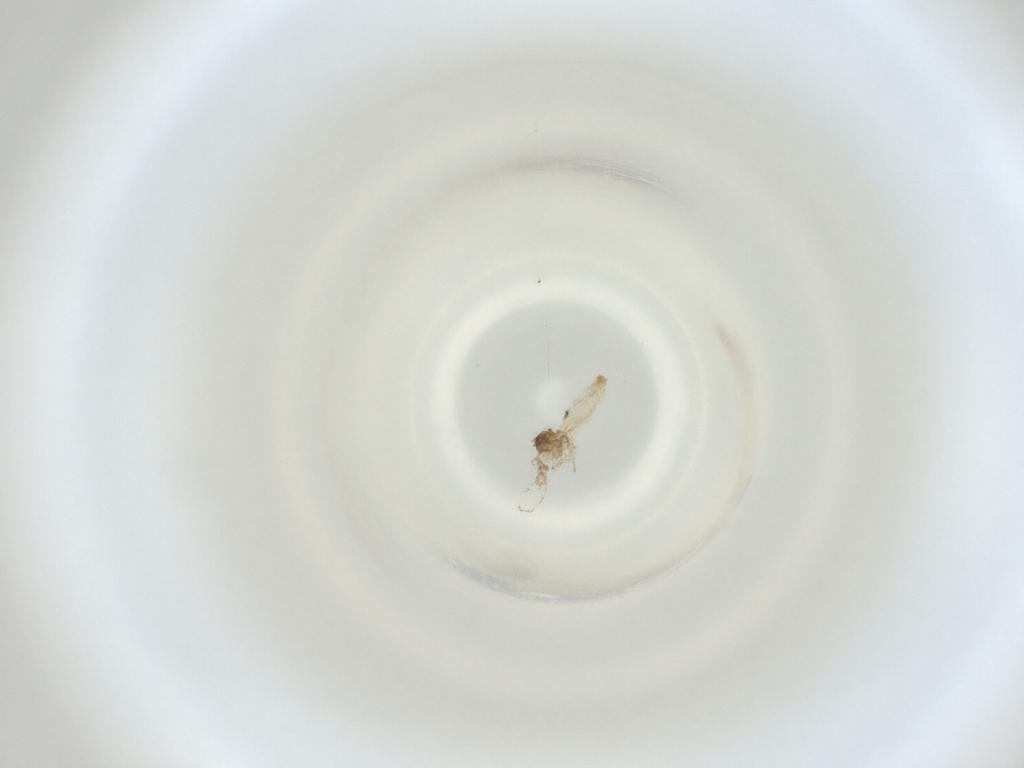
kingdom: Animalia
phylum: Arthropoda
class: Insecta
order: Diptera
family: Cecidomyiidae
